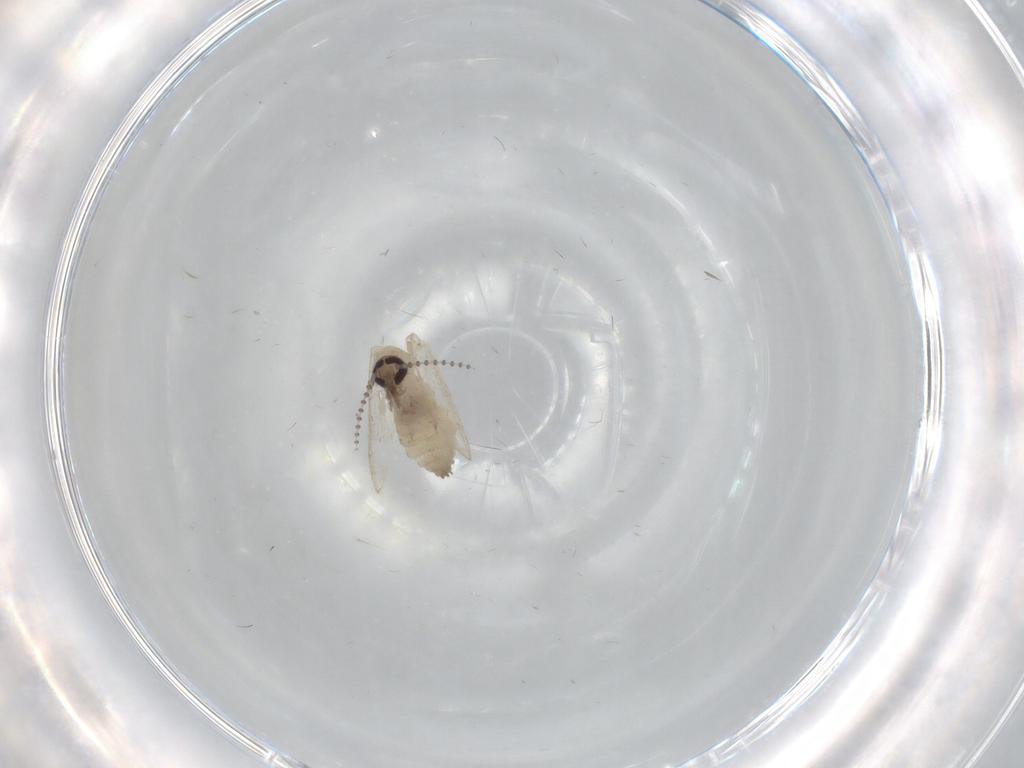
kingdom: Animalia
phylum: Arthropoda
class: Insecta
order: Diptera
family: Psychodidae
